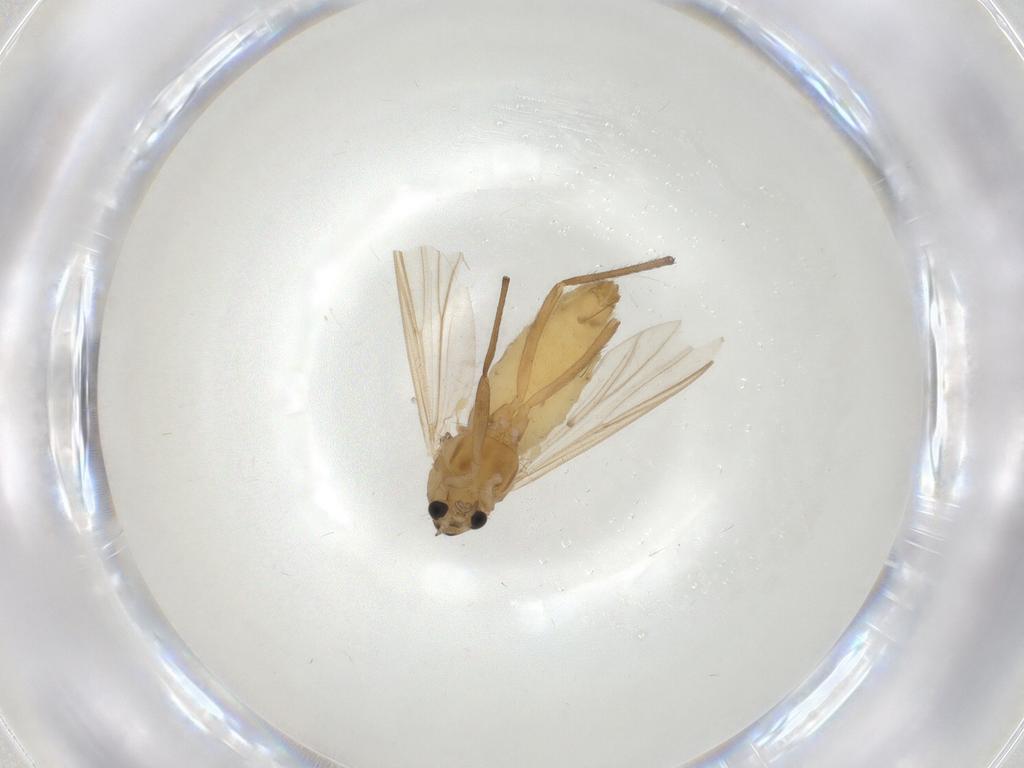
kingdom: Animalia
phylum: Arthropoda
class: Insecta
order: Diptera
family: Chironomidae
